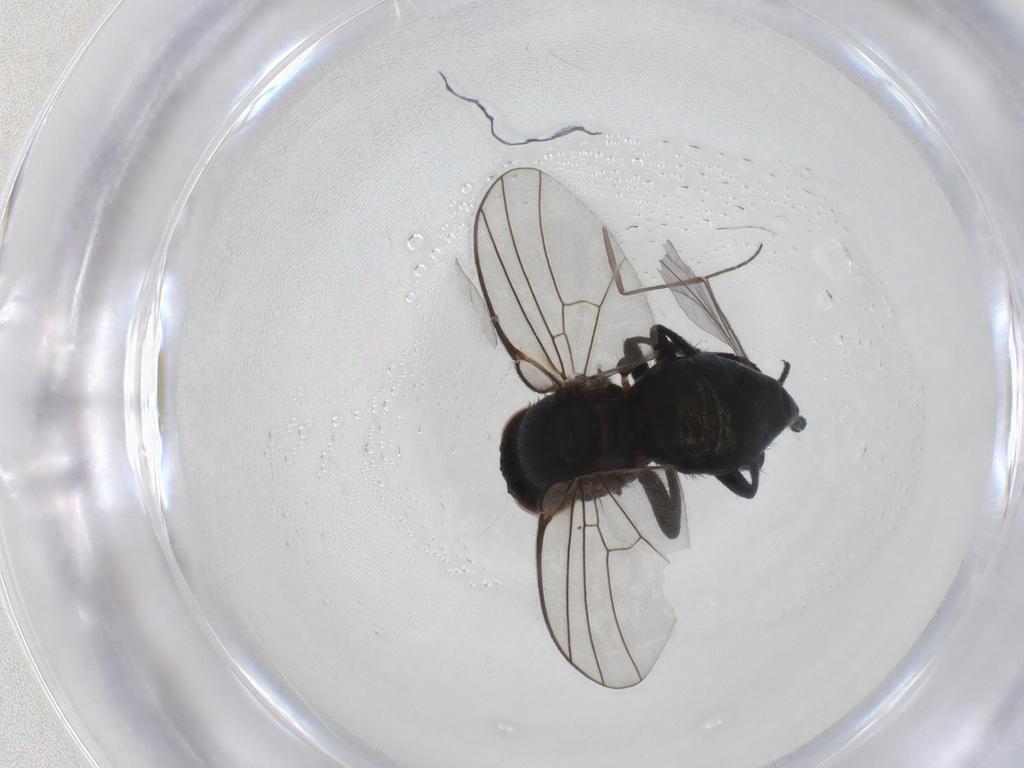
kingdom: Animalia
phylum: Arthropoda
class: Insecta
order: Diptera
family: Sciaridae
